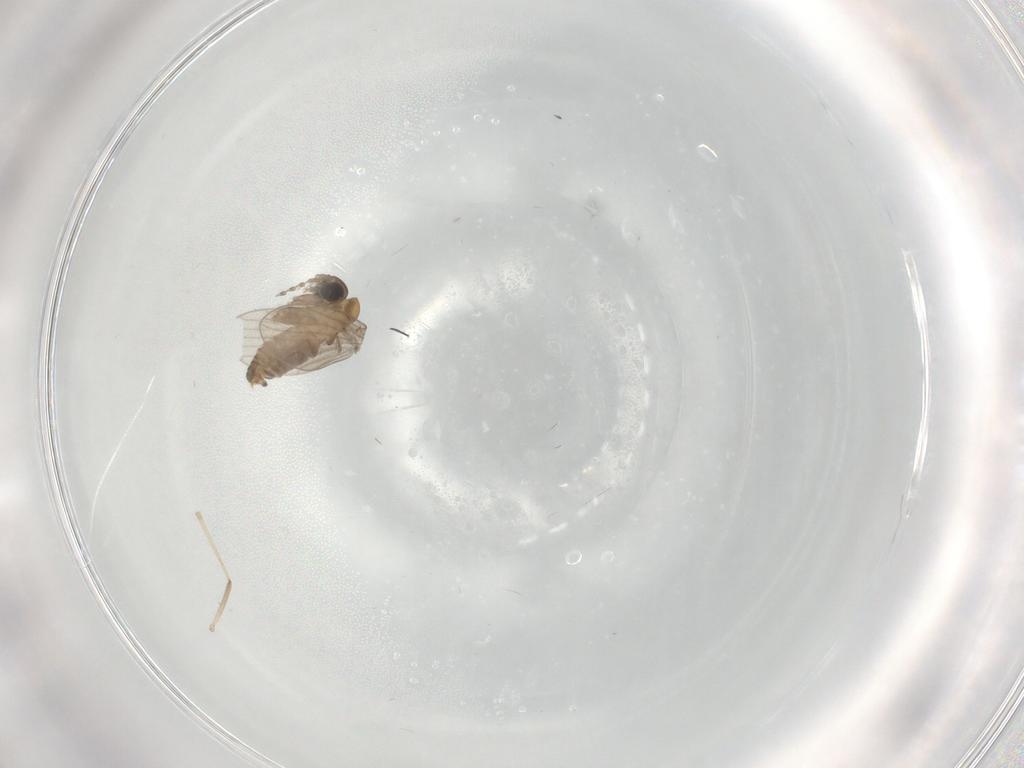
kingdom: Animalia
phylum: Arthropoda
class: Insecta
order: Diptera
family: Psychodidae
